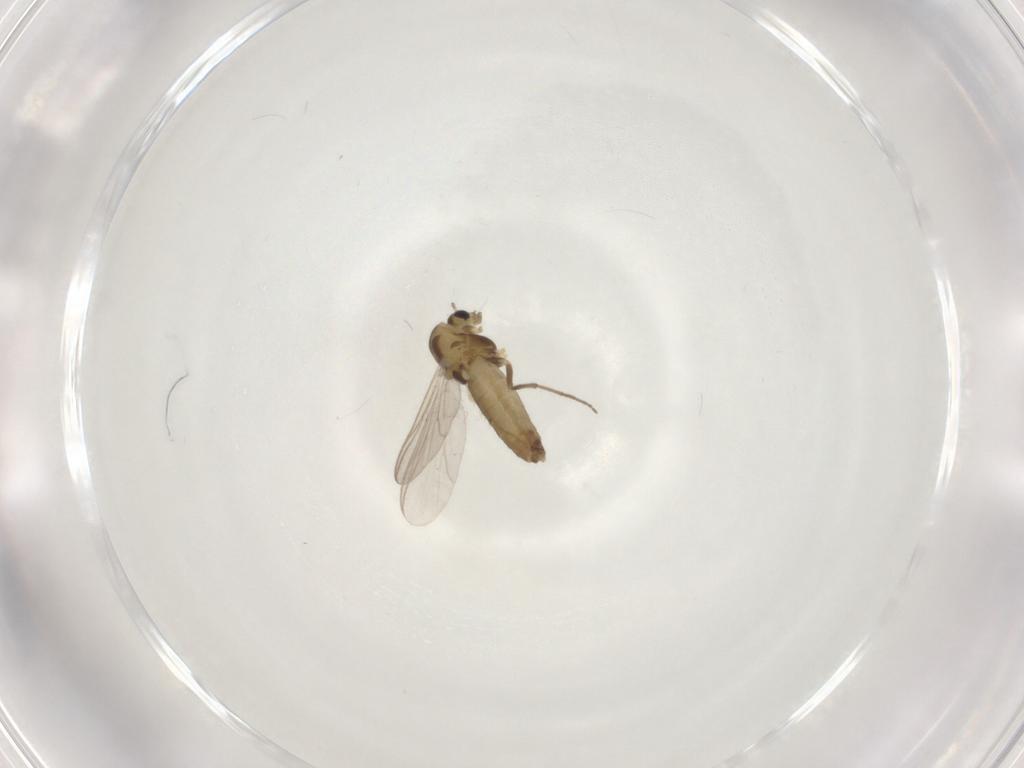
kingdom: Animalia
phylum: Arthropoda
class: Insecta
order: Diptera
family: Chironomidae
